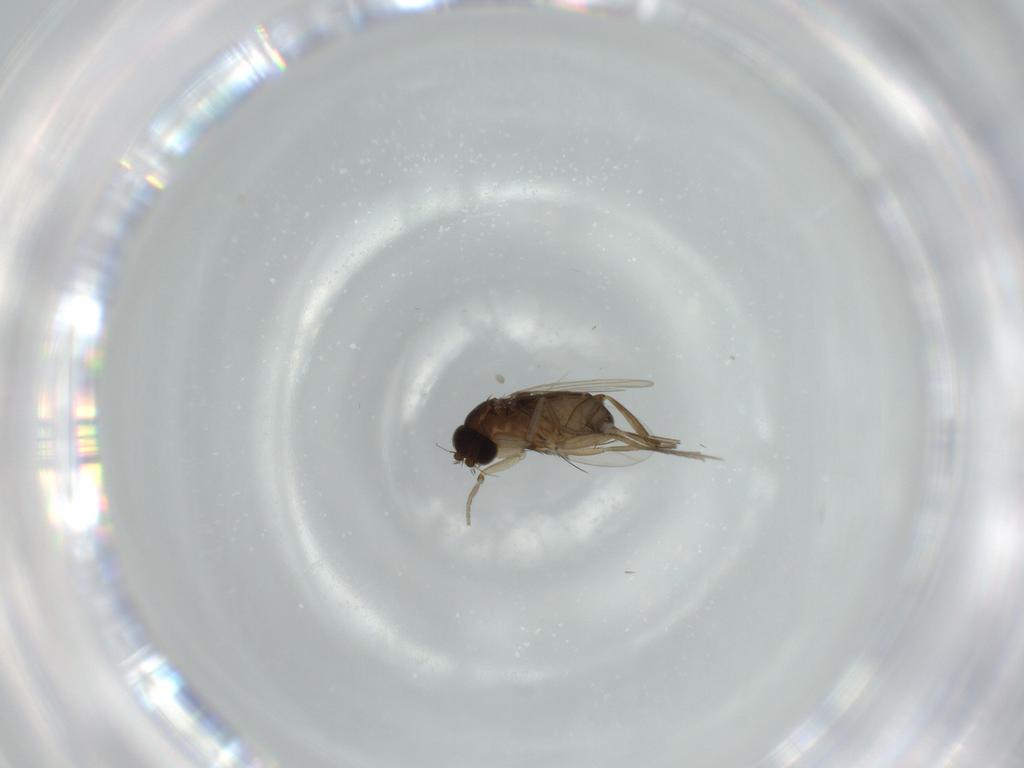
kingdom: Animalia
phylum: Arthropoda
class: Insecta
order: Diptera
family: Phoridae
